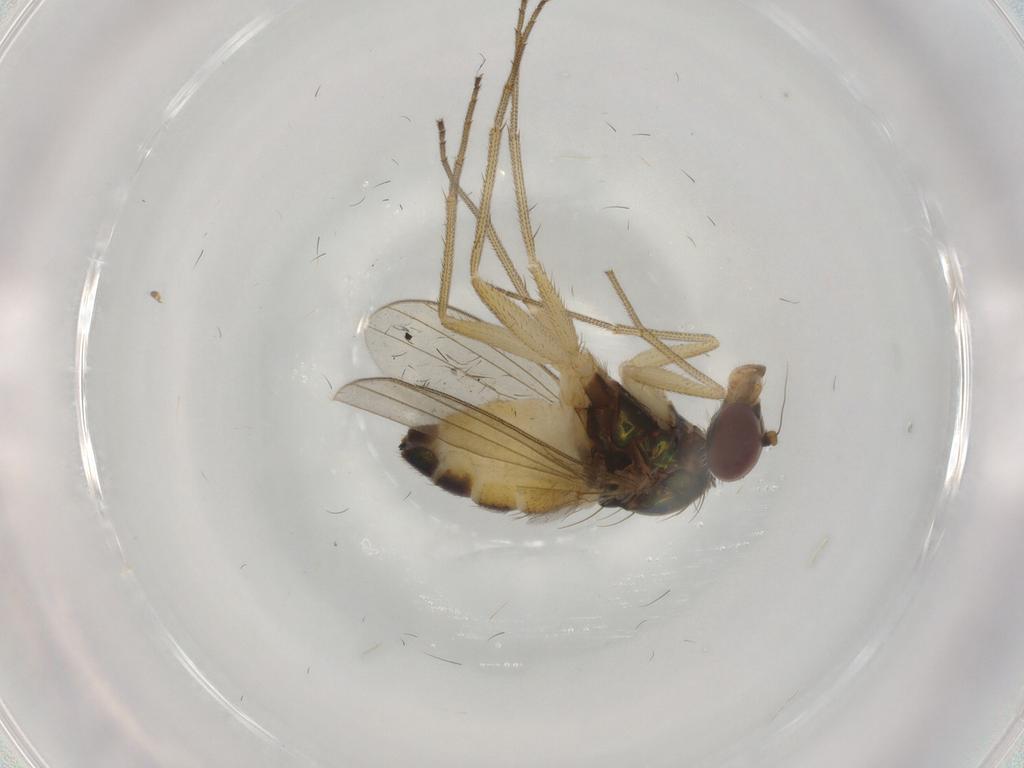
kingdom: Animalia
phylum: Arthropoda
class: Insecta
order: Diptera
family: Dolichopodidae
